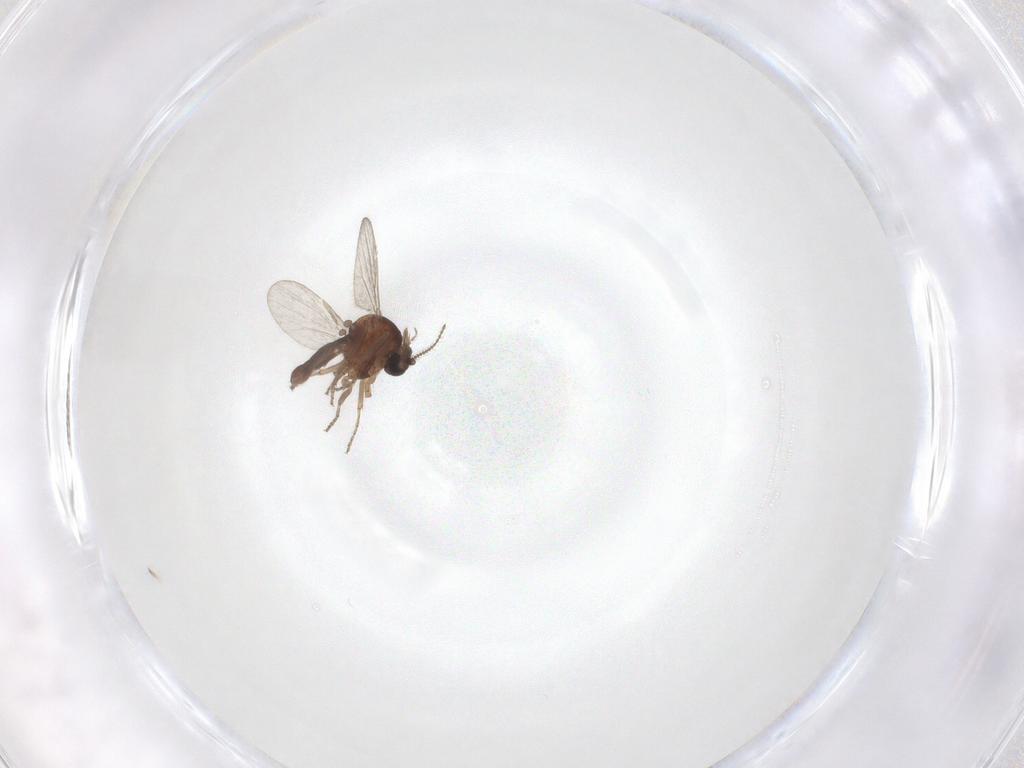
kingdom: Animalia
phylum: Arthropoda
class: Insecta
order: Diptera
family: Ceratopogonidae
